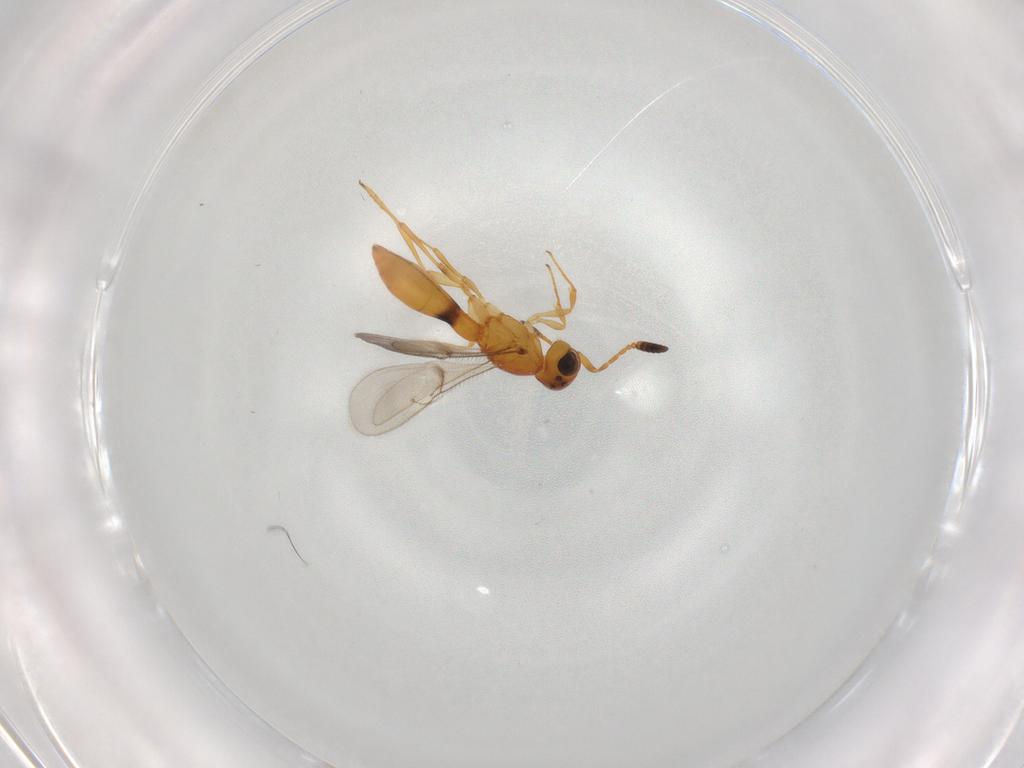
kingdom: Animalia
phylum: Arthropoda
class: Insecta
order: Hymenoptera
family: Scelionidae
